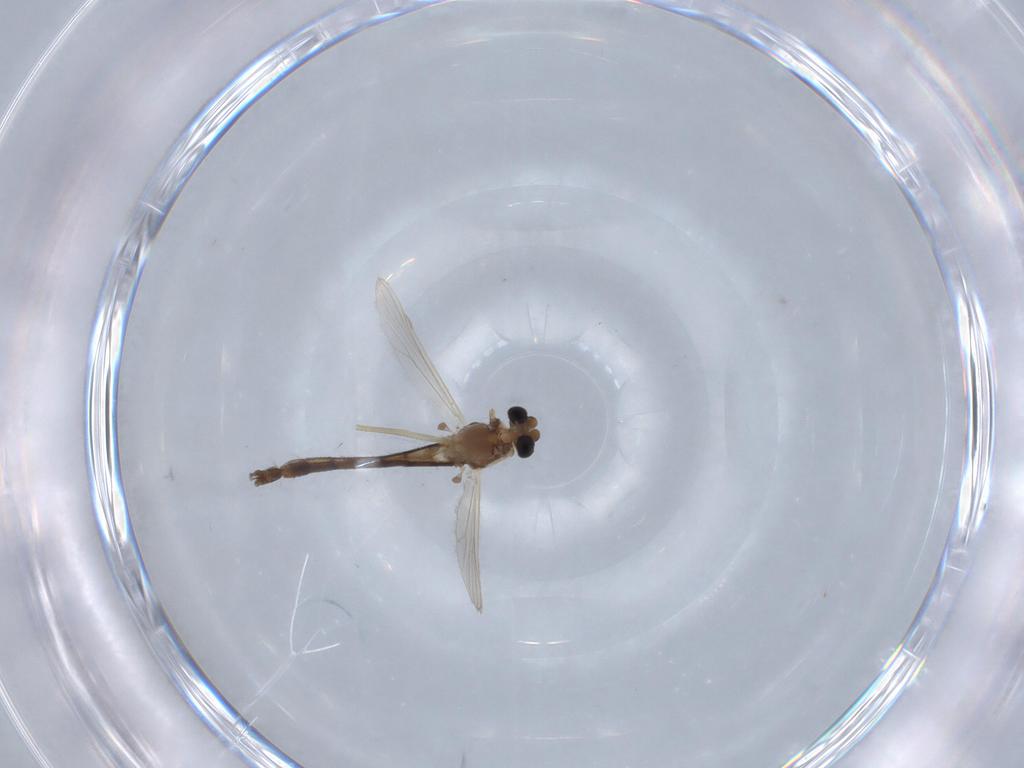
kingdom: Animalia
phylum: Arthropoda
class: Insecta
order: Diptera
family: Chironomidae
